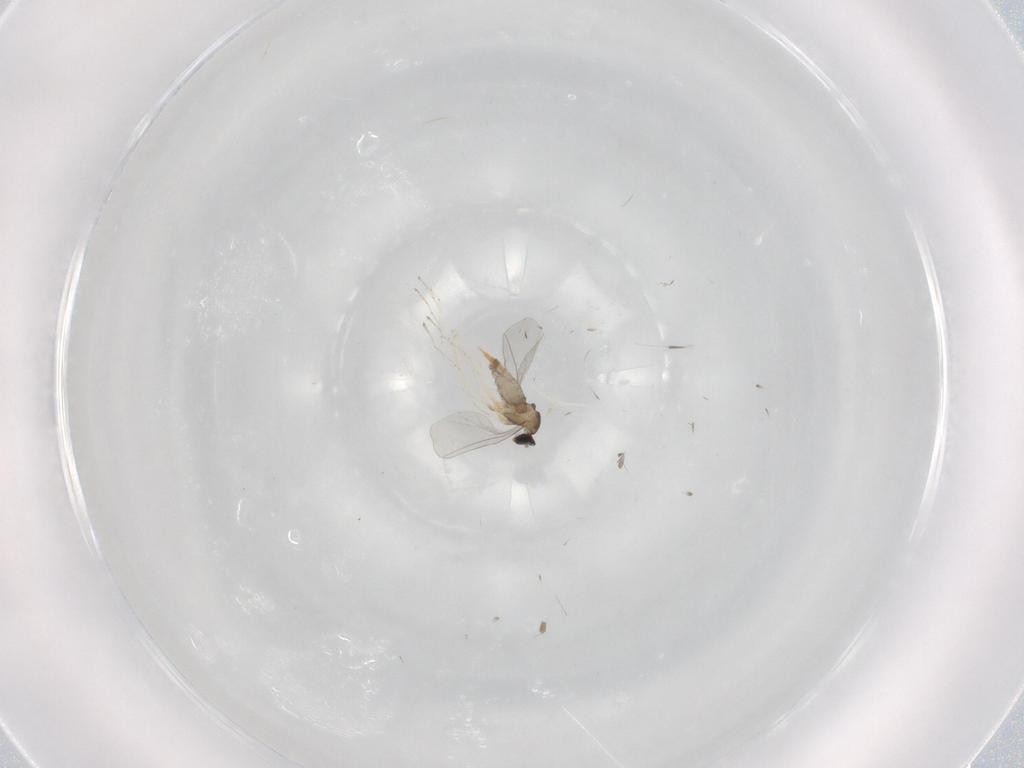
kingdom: Animalia
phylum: Arthropoda
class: Insecta
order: Diptera
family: Cecidomyiidae
